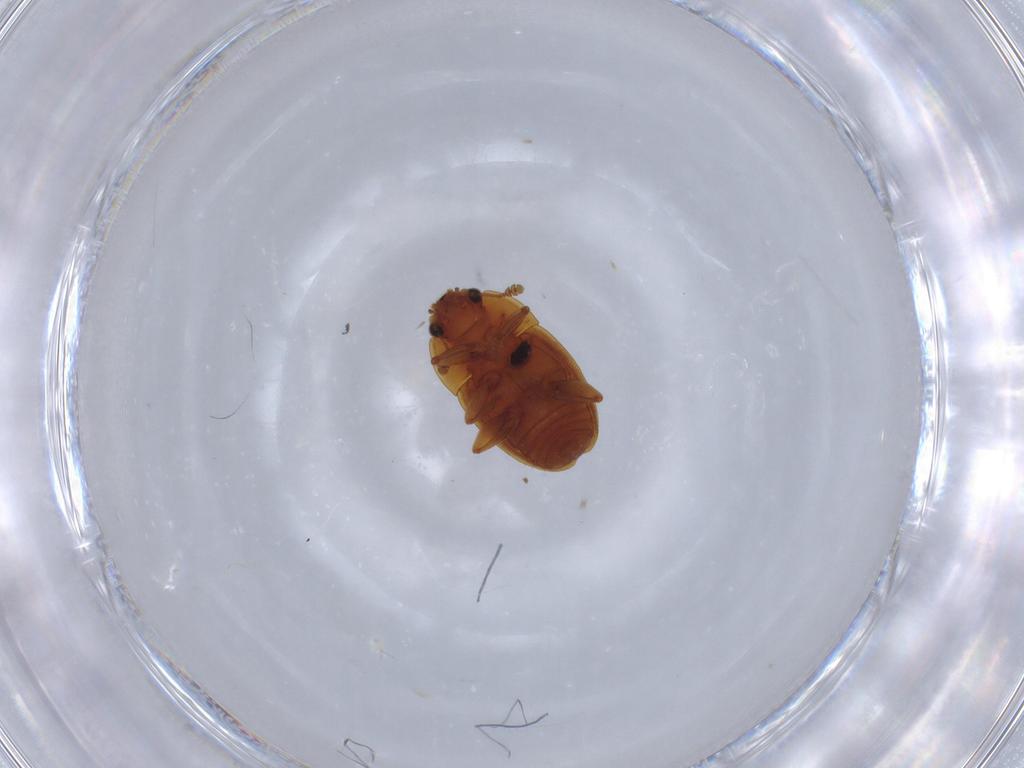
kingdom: Animalia
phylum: Arthropoda
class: Insecta
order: Coleoptera
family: Nitidulidae
